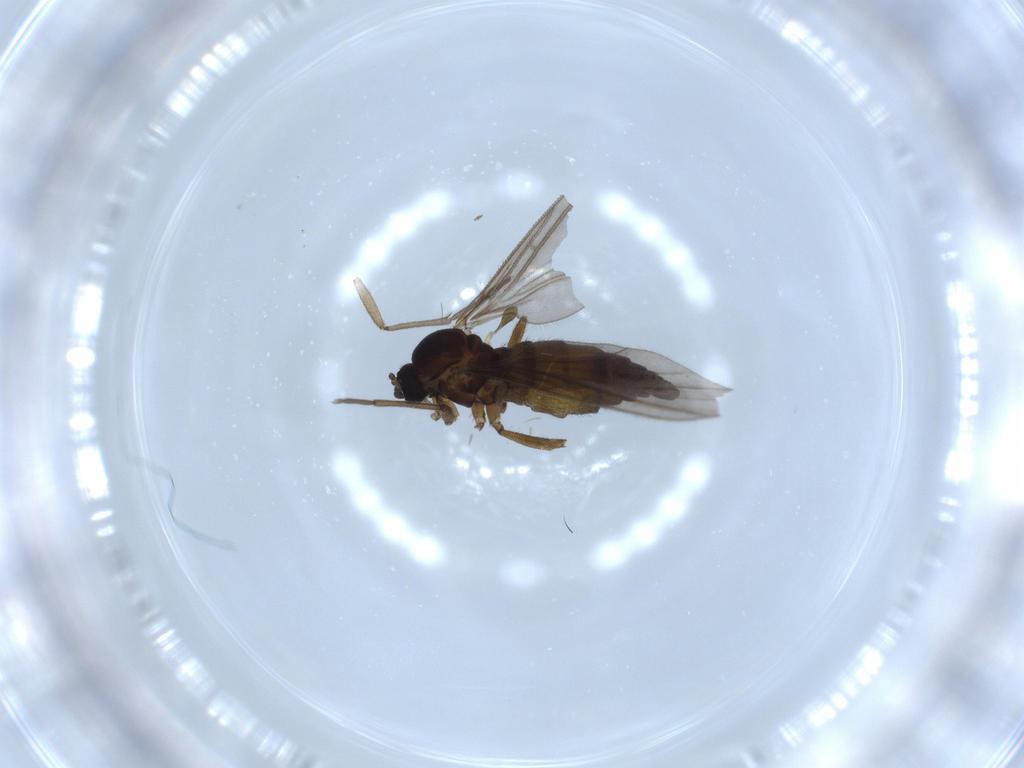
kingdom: Animalia
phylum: Arthropoda
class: Insecta
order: Diptera
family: Sciaridae
